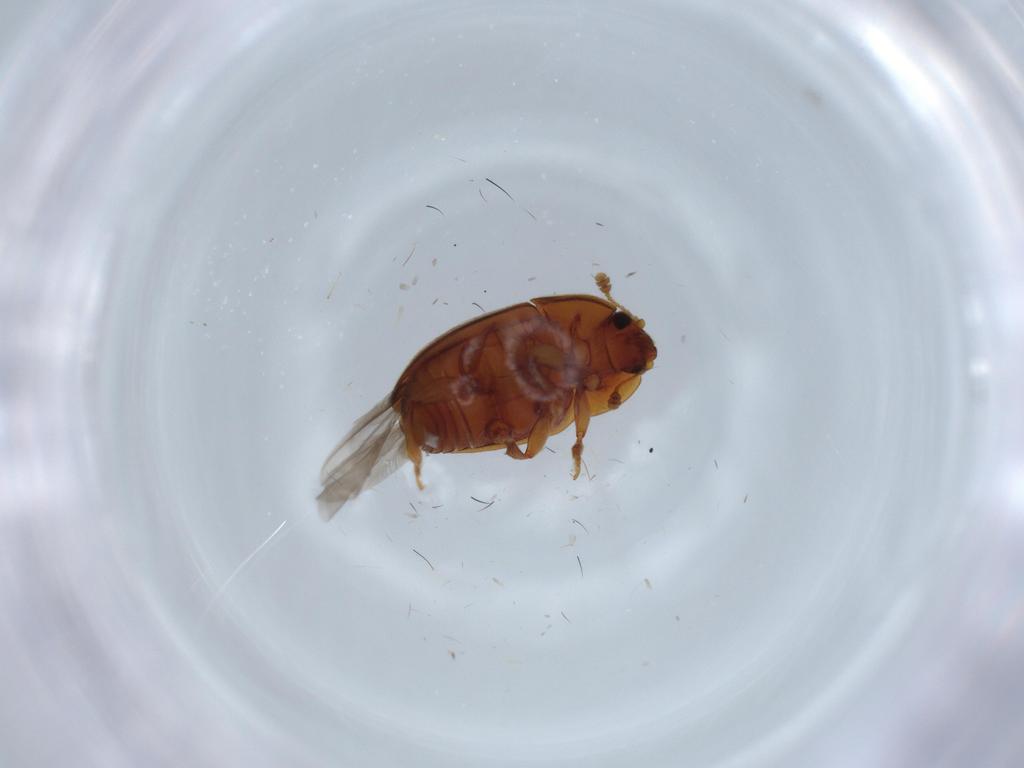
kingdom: Animalia
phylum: Arthropoda
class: Insecta
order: Coleoptera
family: Nitidulidae
